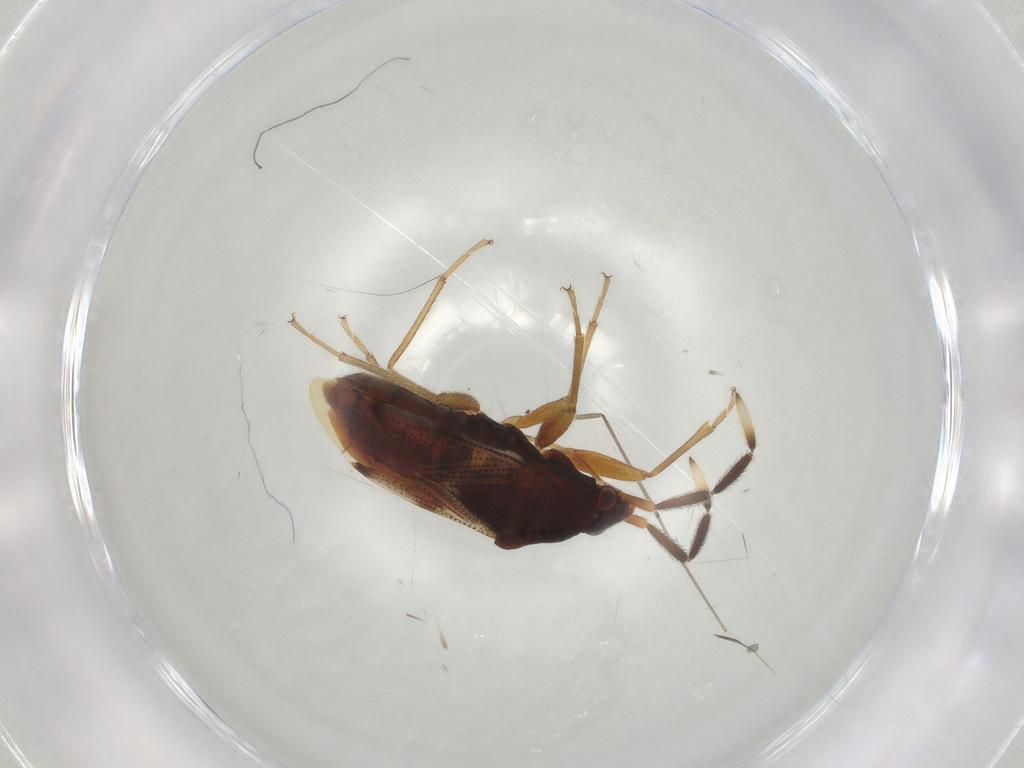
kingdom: Animalia
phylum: Arthropoda
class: Insecta
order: Hemiptera
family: Rhyparochromidae
